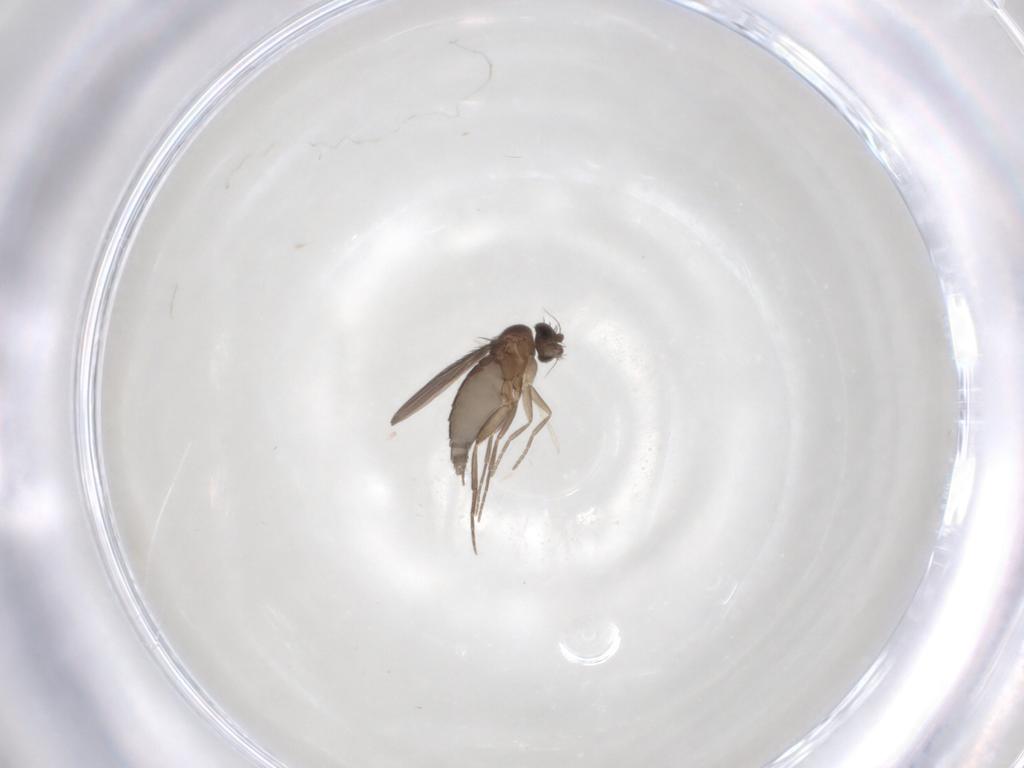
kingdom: Animalia
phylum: Arthropoda
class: Insecta
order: Diptera
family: Phoridae
